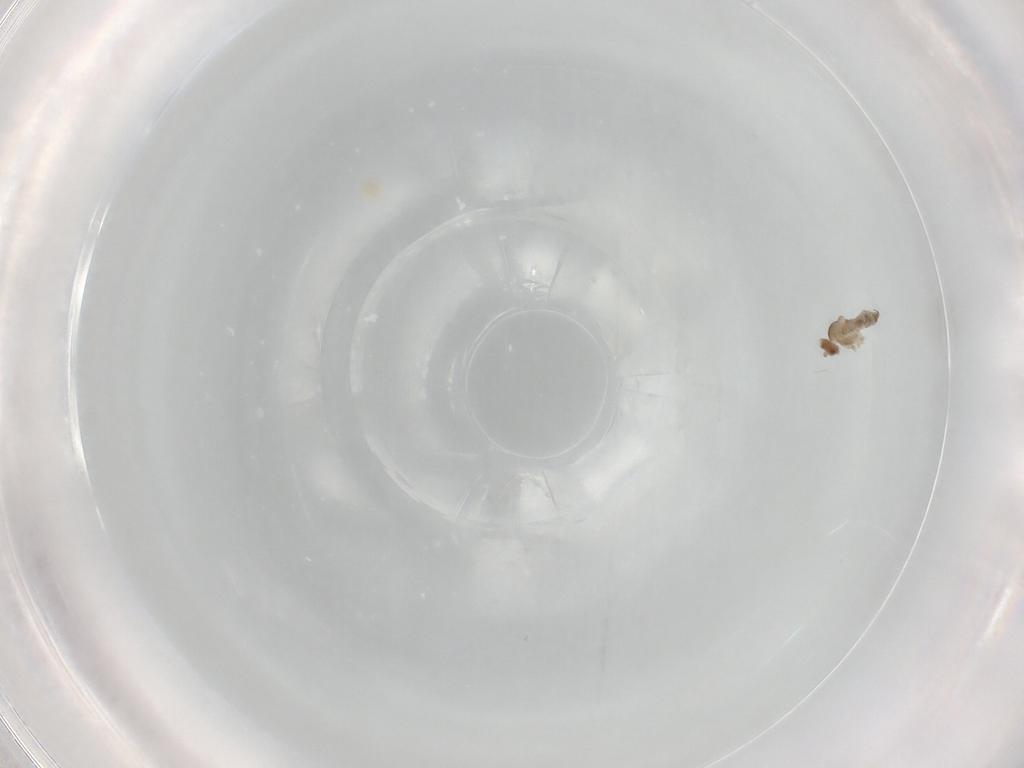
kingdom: Animalia
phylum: Arthropoda
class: Insecta
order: Diptera
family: Cecidomyiidae
